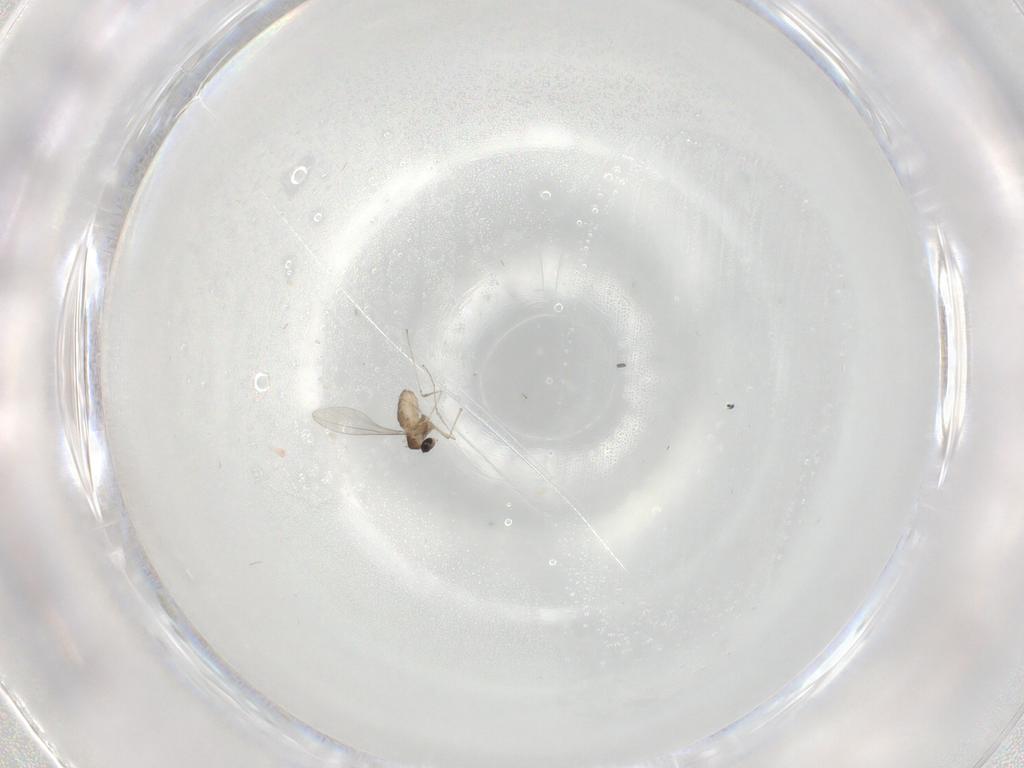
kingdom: Animalia
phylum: Arthropoda
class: Insecta
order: Diptera
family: Cecidomyiidae
